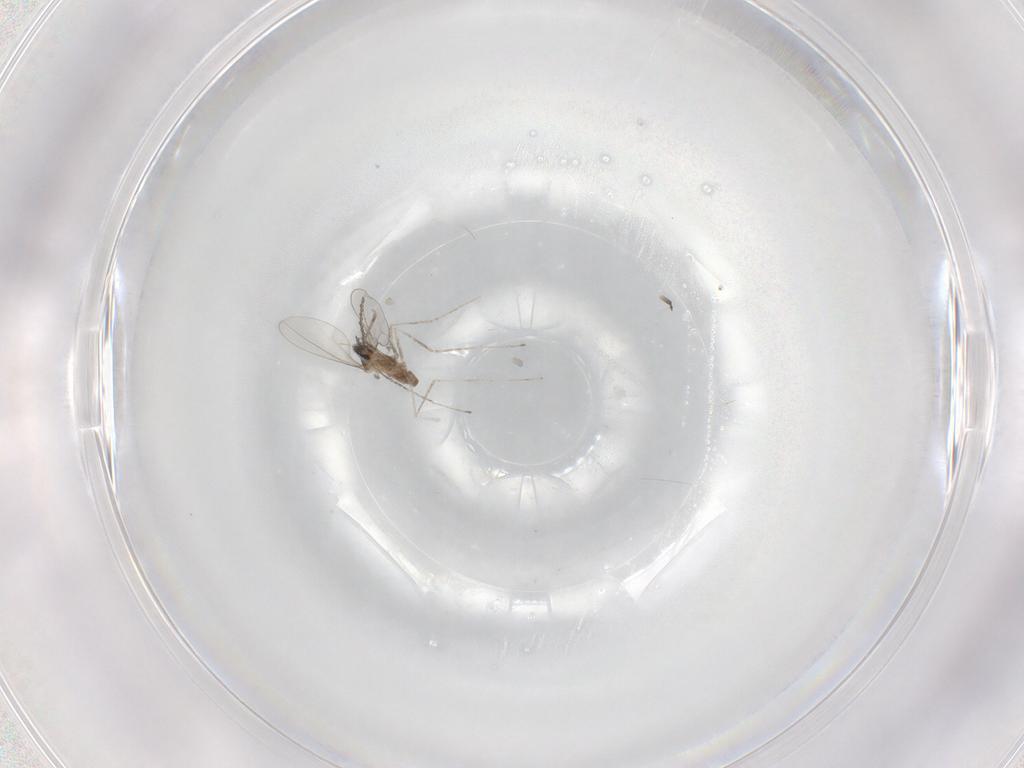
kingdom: Animalia
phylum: Arthropoda
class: Insecta
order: Diptera
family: Cecidomyiidae
